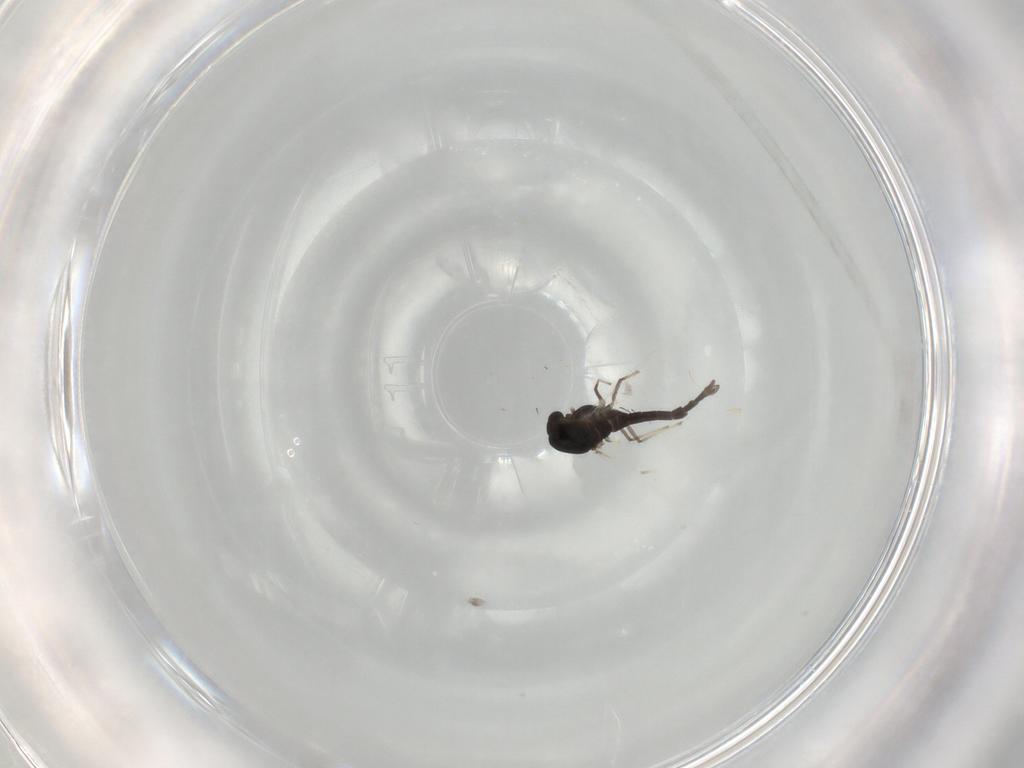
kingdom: Animalia
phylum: Arthropoda
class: Insecta
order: Diptera
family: Chironomidae
